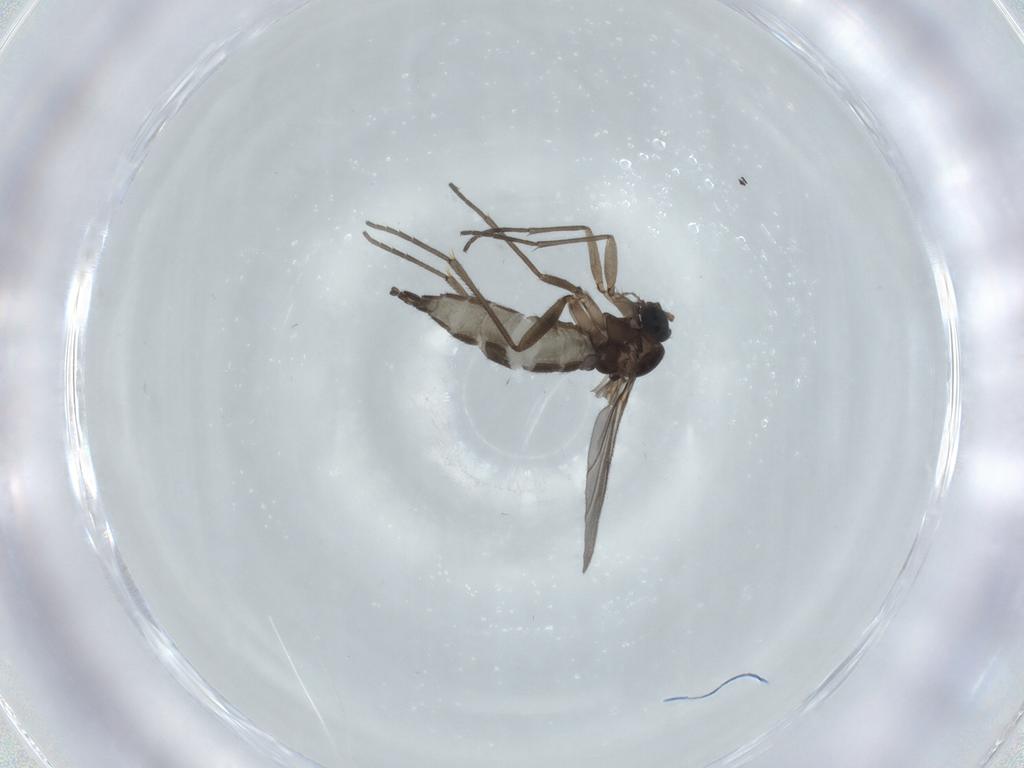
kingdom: Animalia
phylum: Arthropoda
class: Insecta
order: Diptera
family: Phoridae
